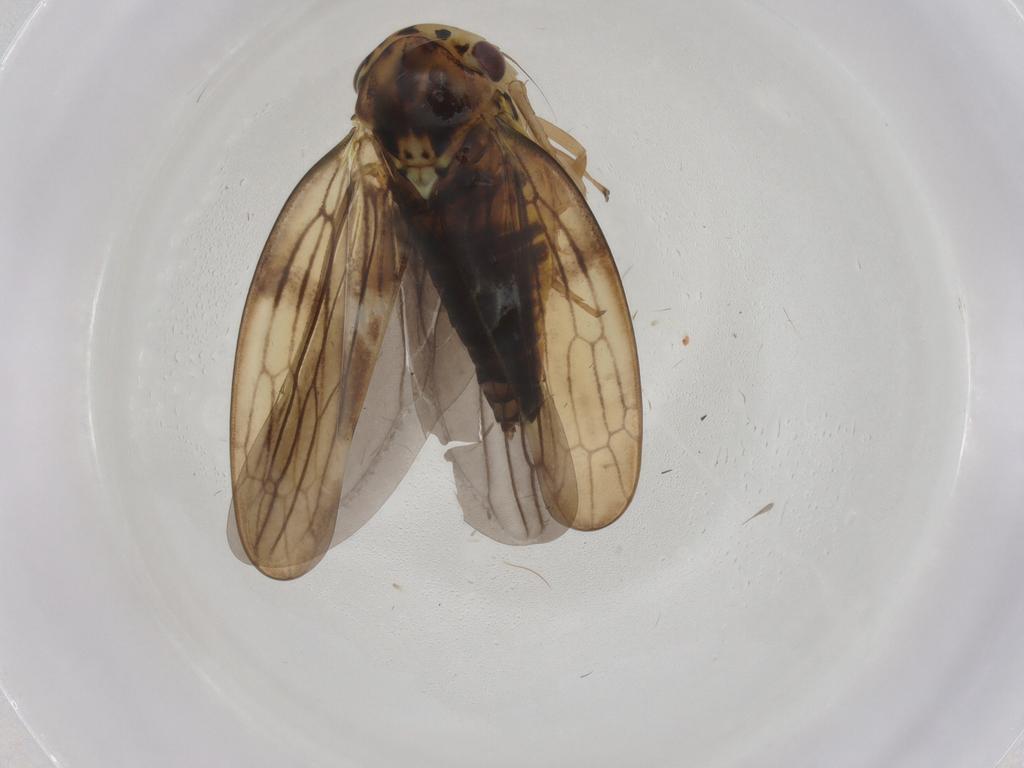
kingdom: Animalia
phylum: Arthropoda
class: Insecta
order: Hemiptera
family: Cicadellidae
